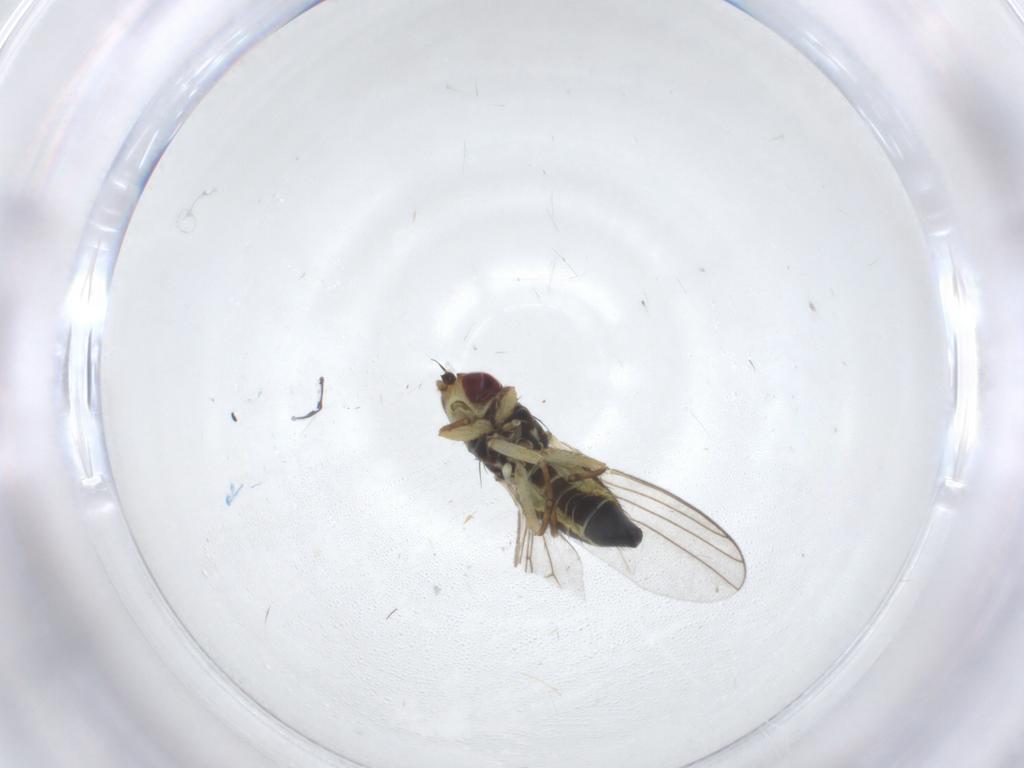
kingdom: Animalia
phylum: Arthropoda
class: Insecta
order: Diptera
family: Agromyzidae
